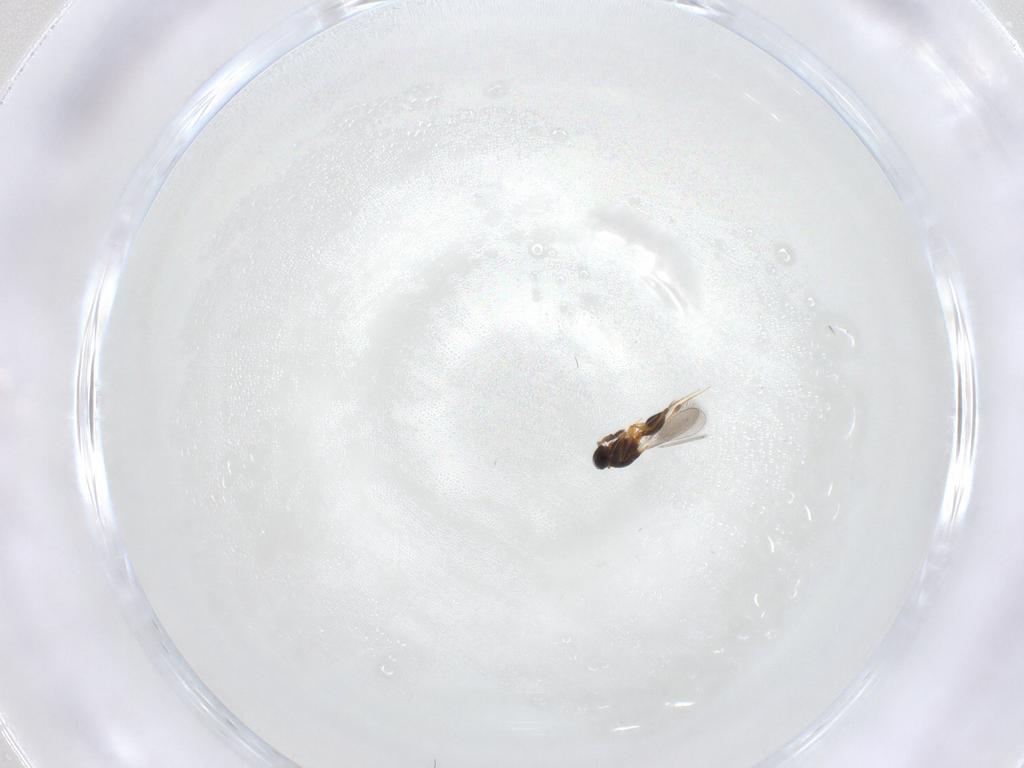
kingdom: Animalia
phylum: Arthropoda
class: Insecta
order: Hymenoptera
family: Platygastridae
